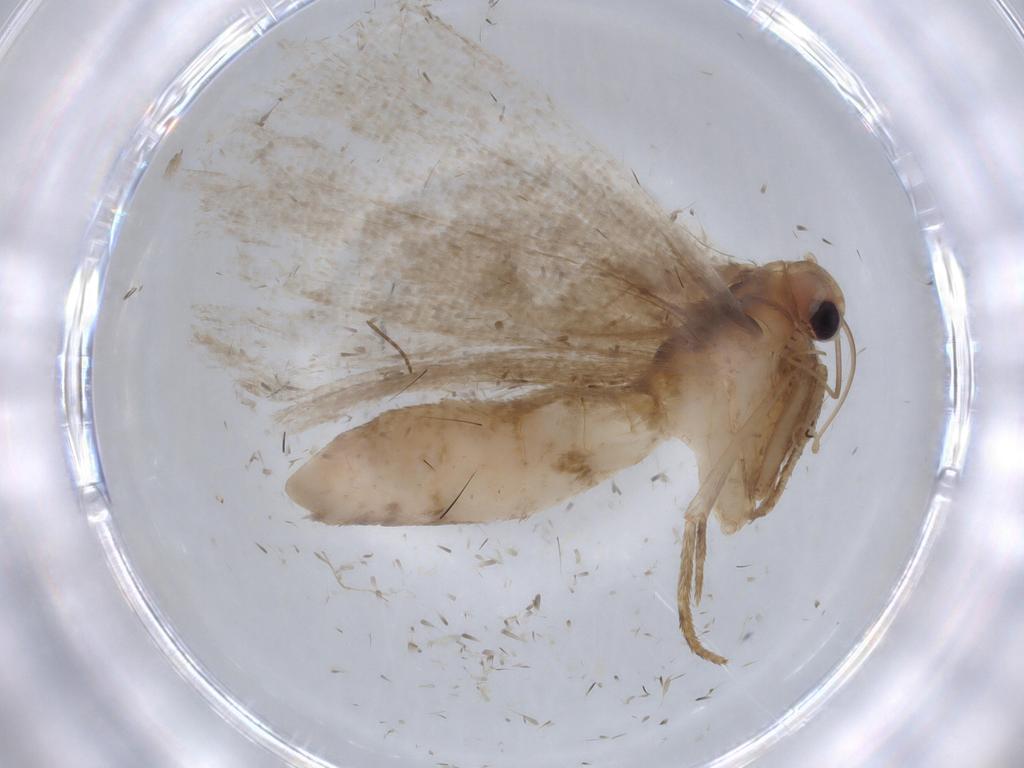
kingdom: Animalia
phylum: Arthropoda
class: Insecta
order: Lepidoptera
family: Erebidae
